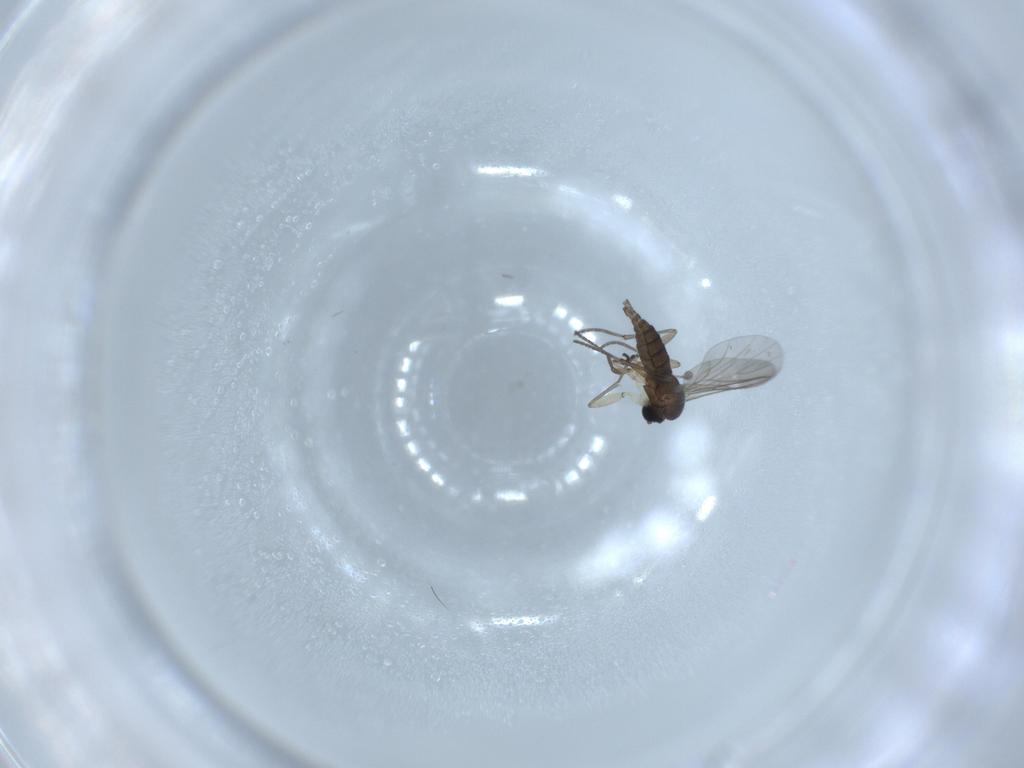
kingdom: Animalia
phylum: Arthropoda
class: Insecta
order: Diptera
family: Sciaridae
